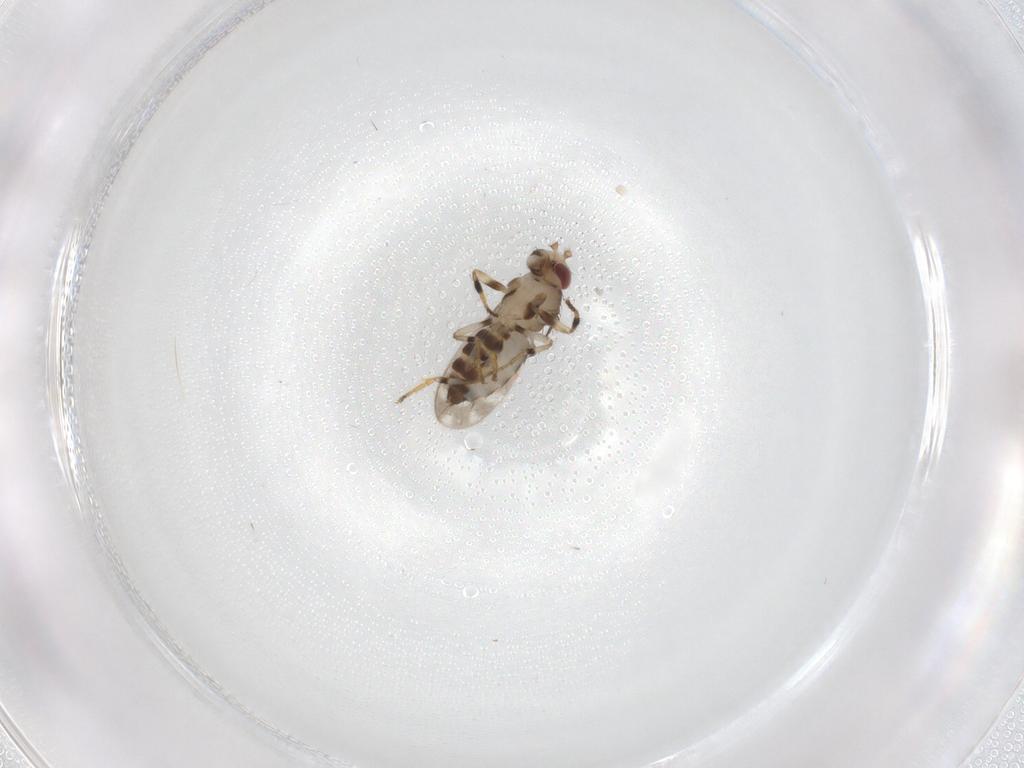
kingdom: Animalia
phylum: Arthropoda
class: Insecta
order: Diptera
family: Sphaeroceridae
